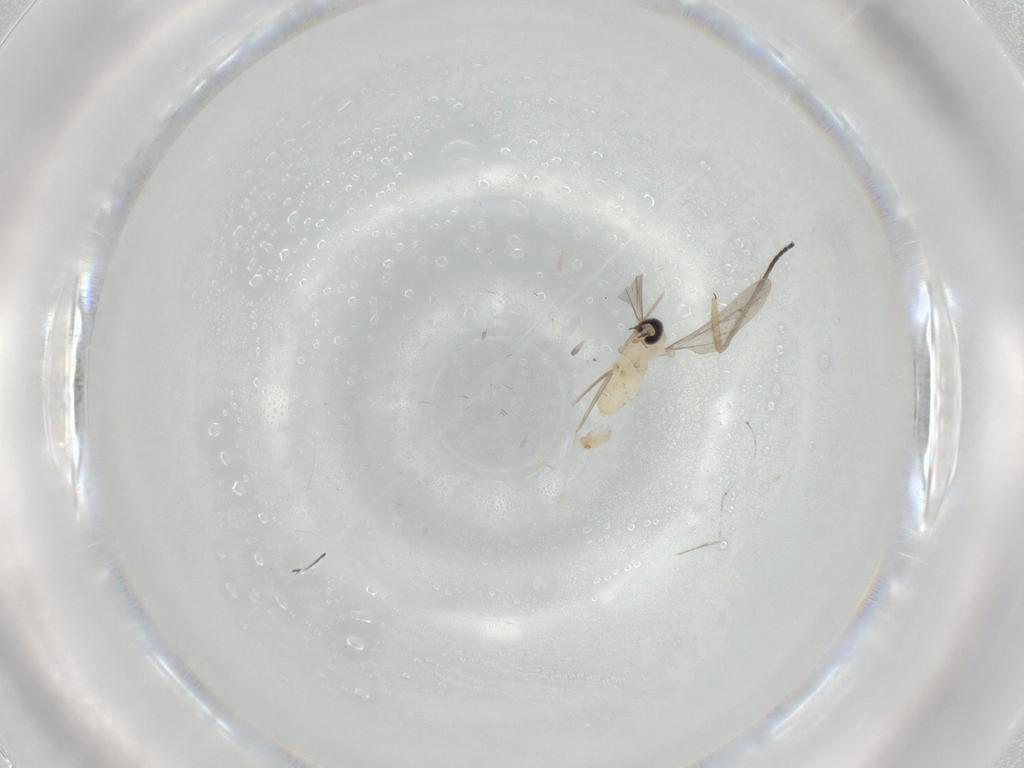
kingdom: Animalia
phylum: Arthropoda
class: Insecta
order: Diptera
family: Cecidomyiidae
